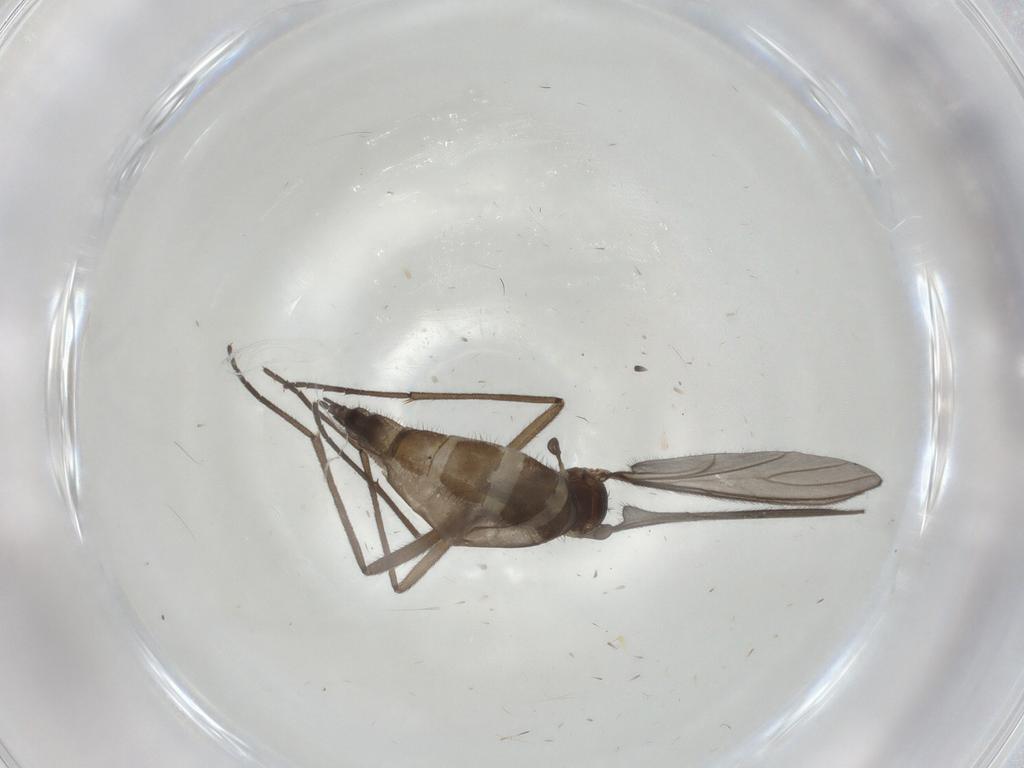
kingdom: Animalia
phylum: Arthropoda
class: Insecta
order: Diptera
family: Sciaridae
